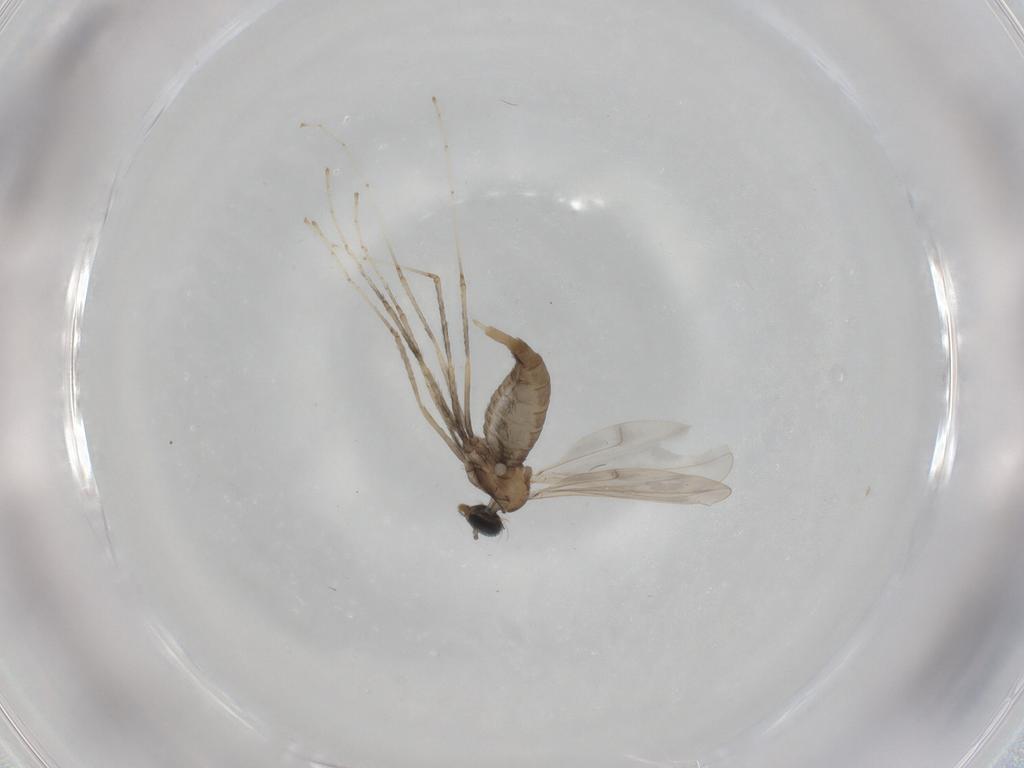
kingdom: Animalia
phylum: Arthropoda
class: Insecta
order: Diptera
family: Cecidomyiidae
